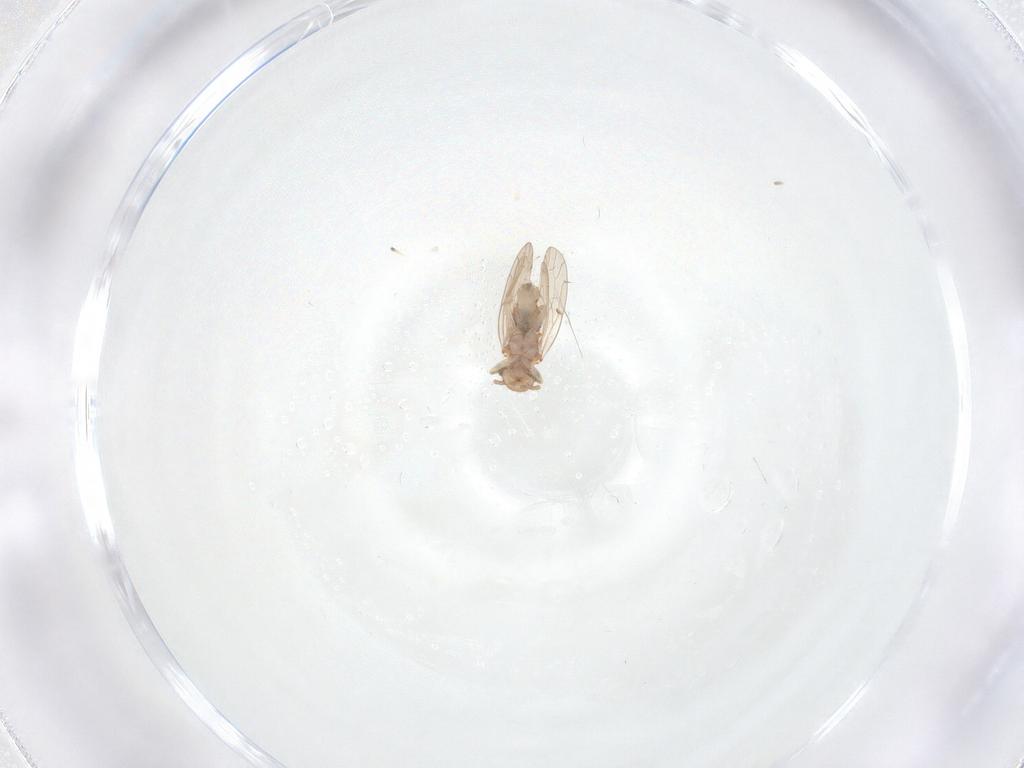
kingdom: Animalia
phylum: Arthropoda
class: Insecta
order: Psocodea
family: Ectopsocidae
